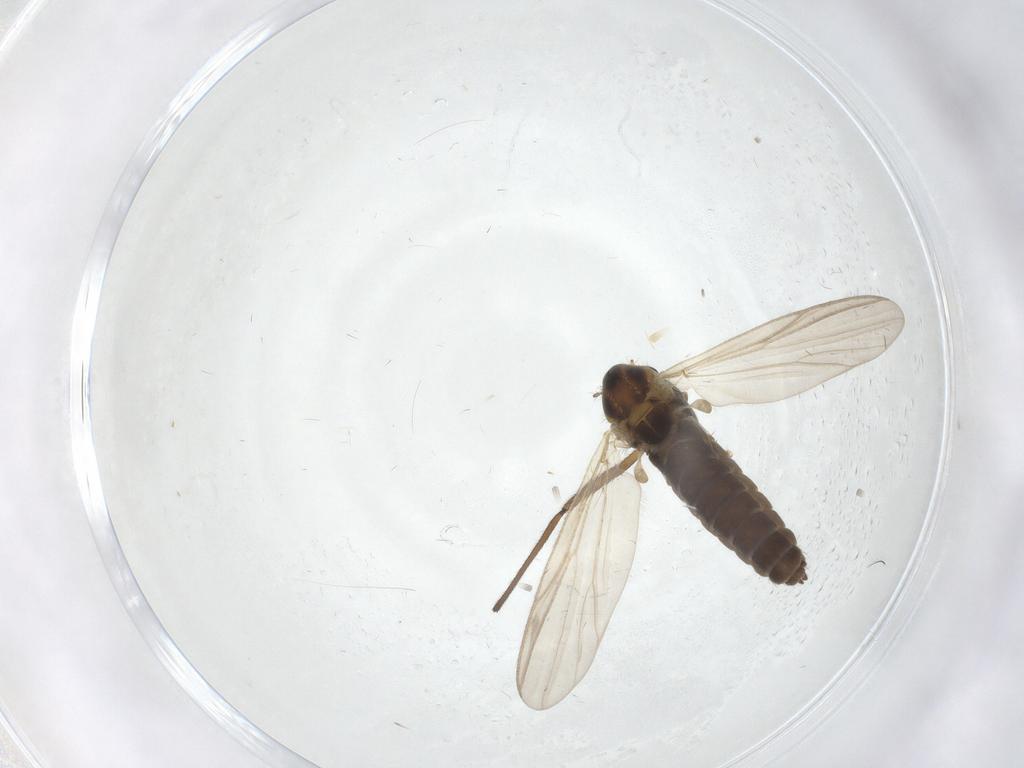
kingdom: Animalia
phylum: Arthropoda
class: Insecta
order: Diptera
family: Chironomidae
